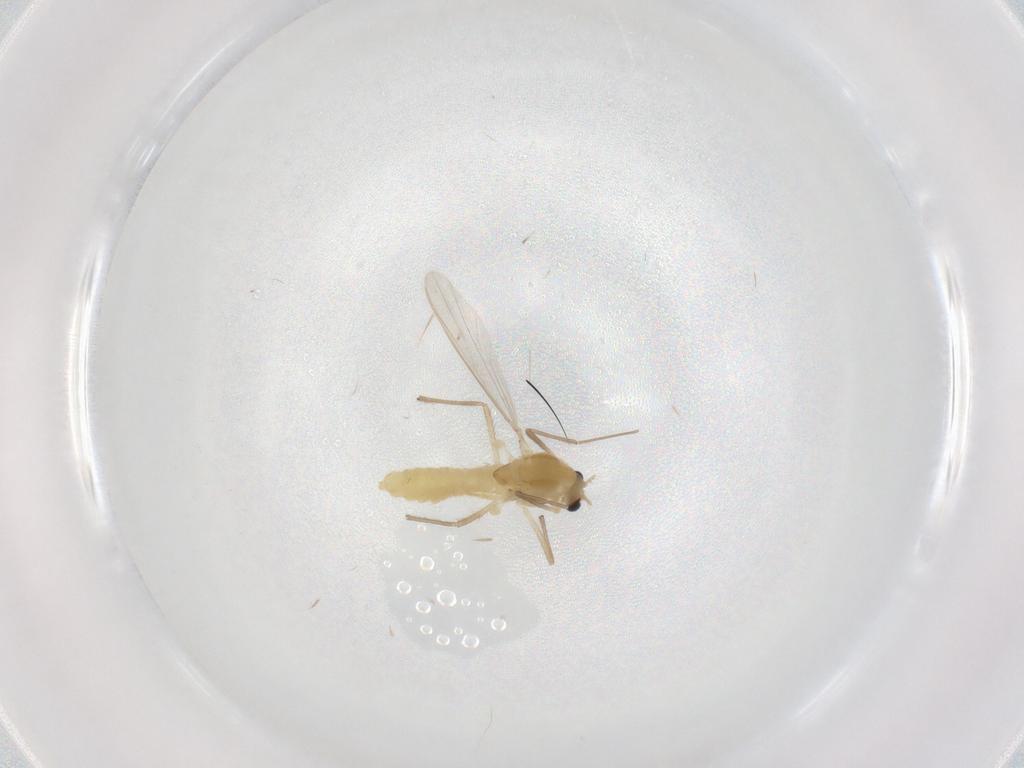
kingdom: Animalia
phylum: Arthropoda
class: Insecta
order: Diptera
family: Chironomidae
